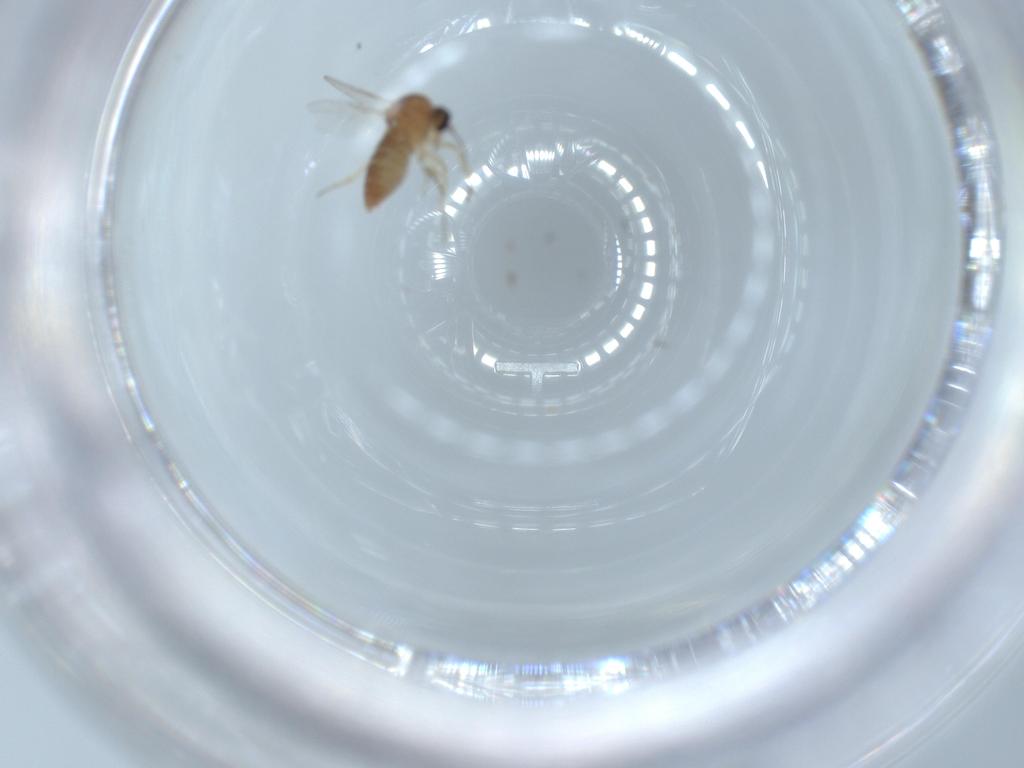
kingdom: Animalia
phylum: Arthropoda
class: Insecta
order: Diptera
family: Ceratopogonidae
